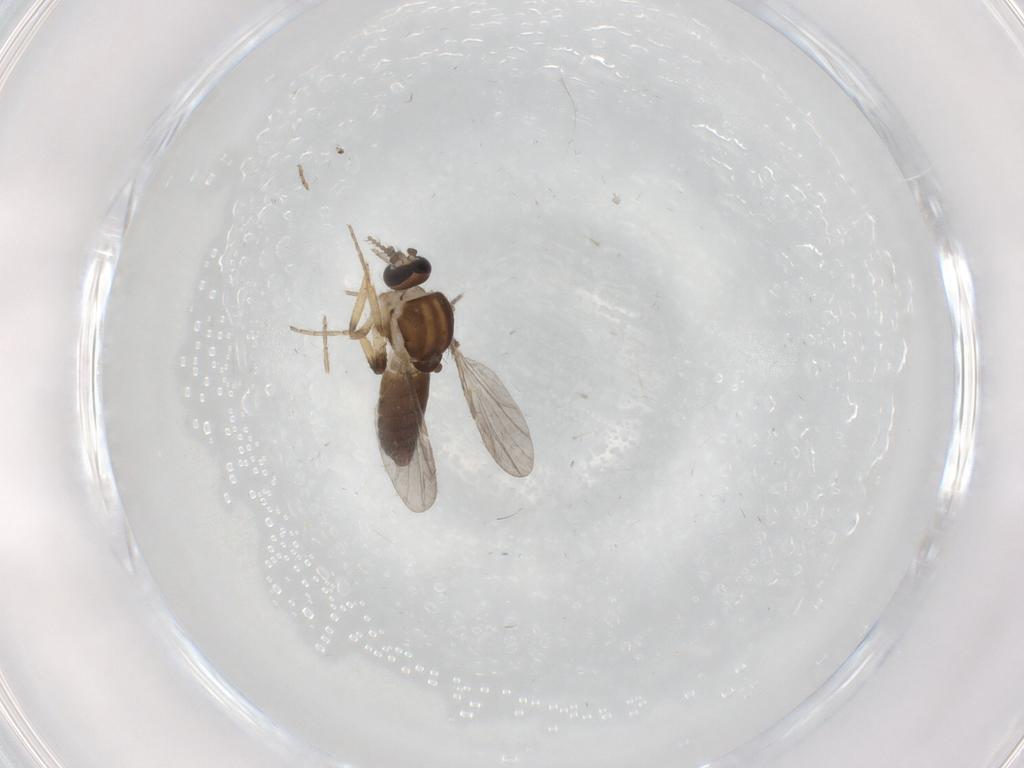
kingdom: Animalia
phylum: Arthropoda
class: Insecta
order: Diptera
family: Ceratopogonidae
